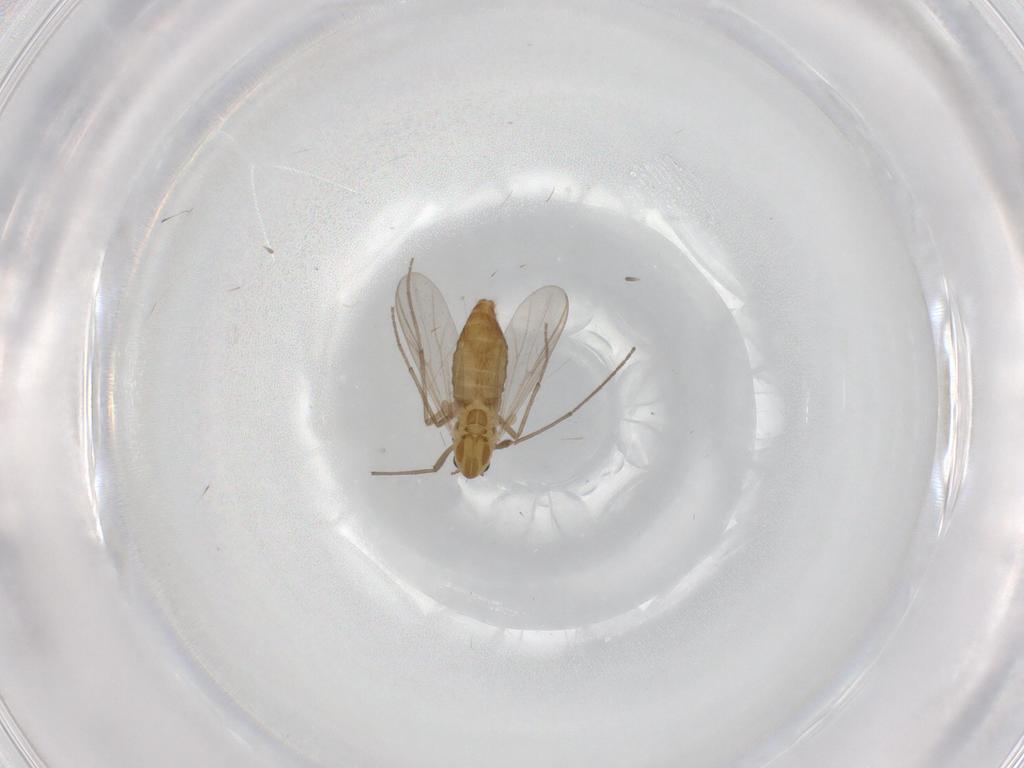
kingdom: Animalia
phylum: Arthropoda
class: Insecta
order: Diptera
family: Chironomidae
